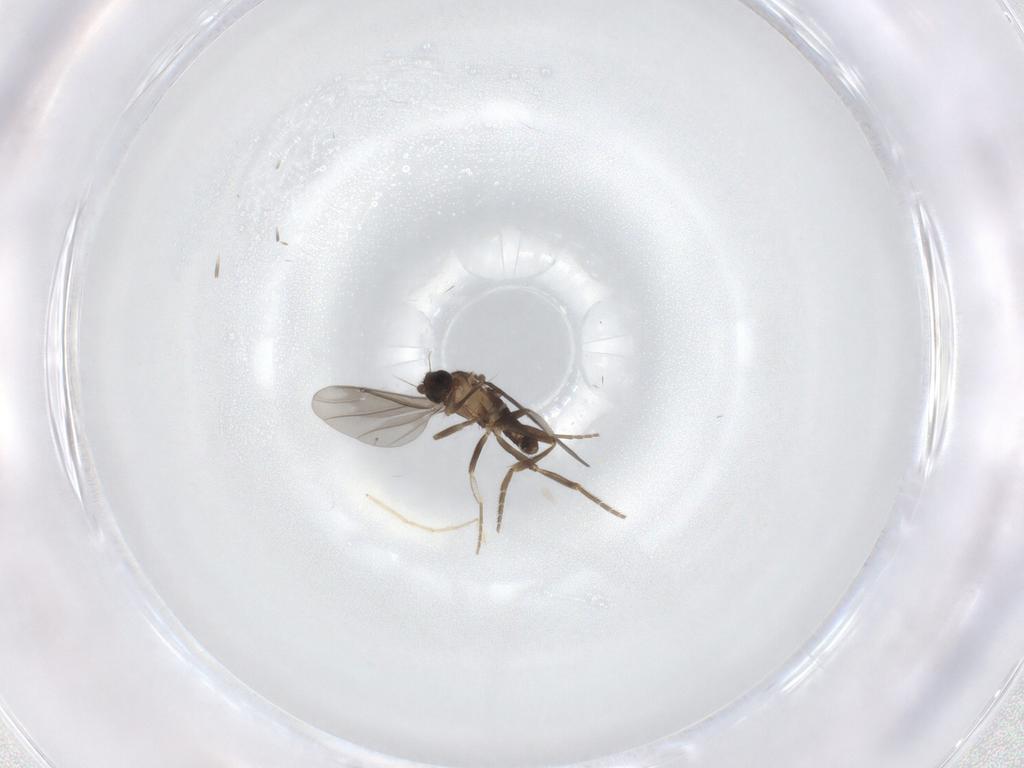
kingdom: Animalia
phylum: Arthropoda
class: Insecta
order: Diptera
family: Chironomidae
